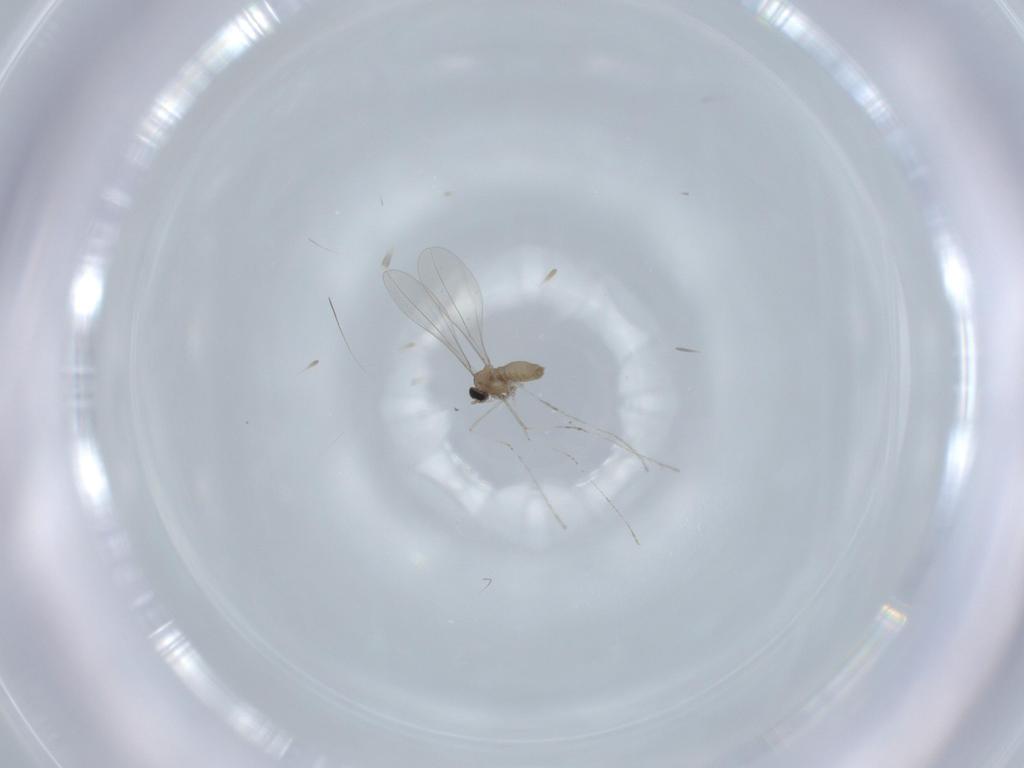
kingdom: Animalia
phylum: Arthropoda
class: Insecta
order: Diptera
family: Cecidomyiidae
